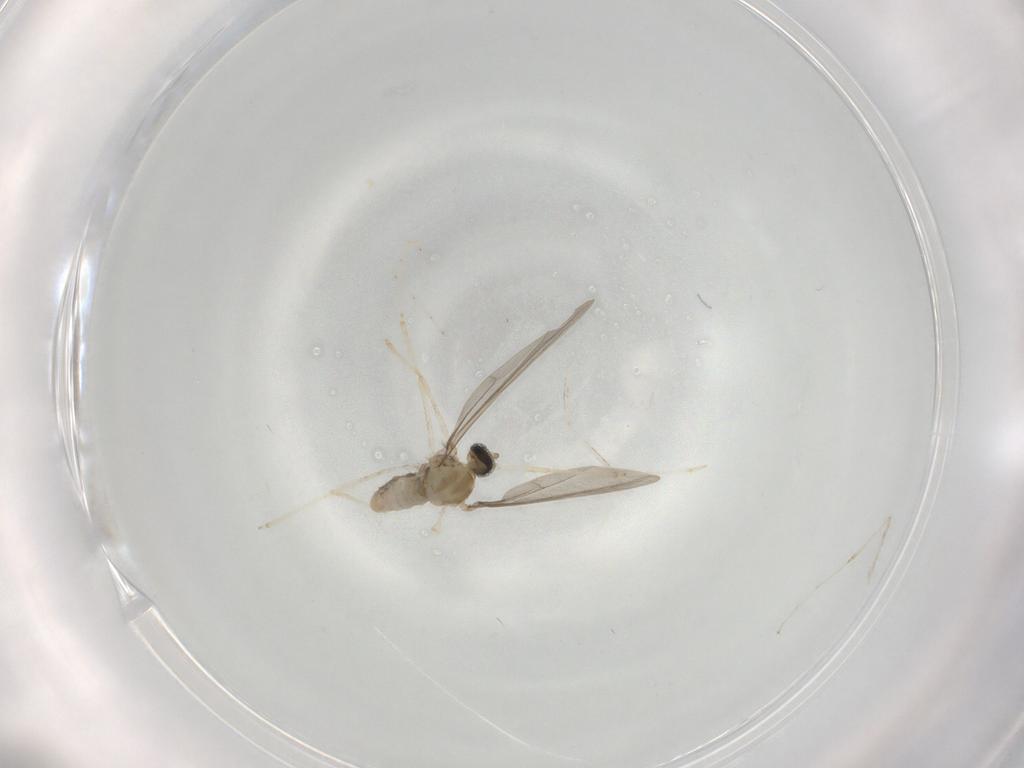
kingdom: Animalia
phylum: Arthropoda
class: Insecta
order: Diptera
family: Cecidomyiidae
